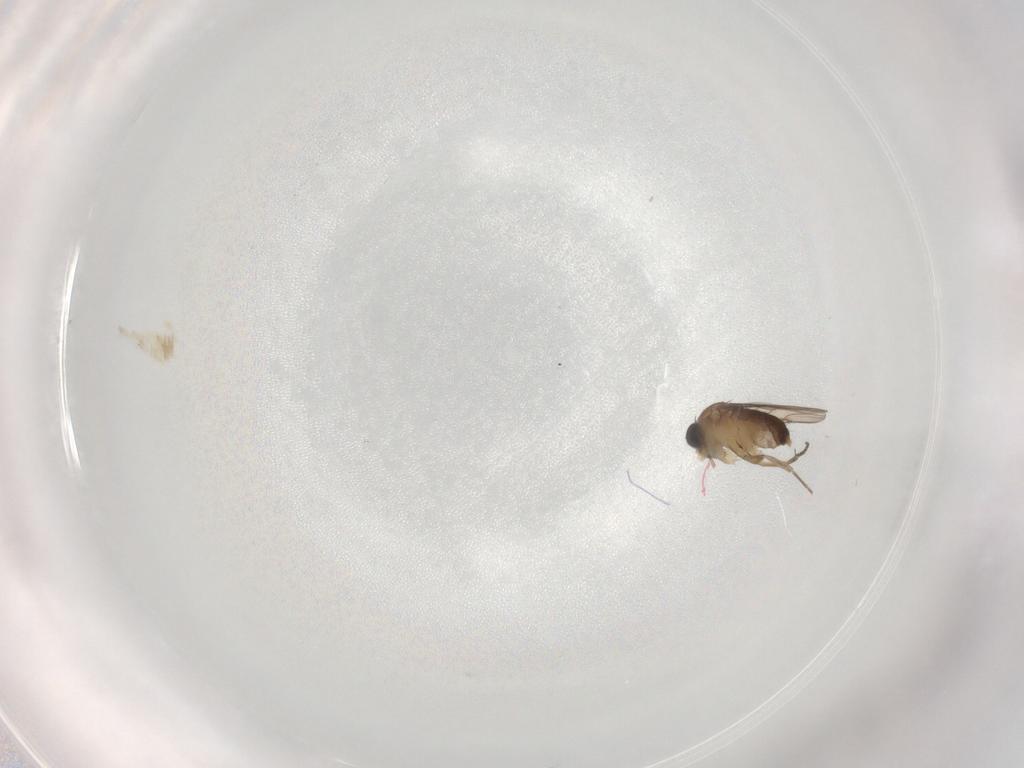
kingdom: Animalia
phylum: Arthropoda
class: Insecta
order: Diptera
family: Phoridae
